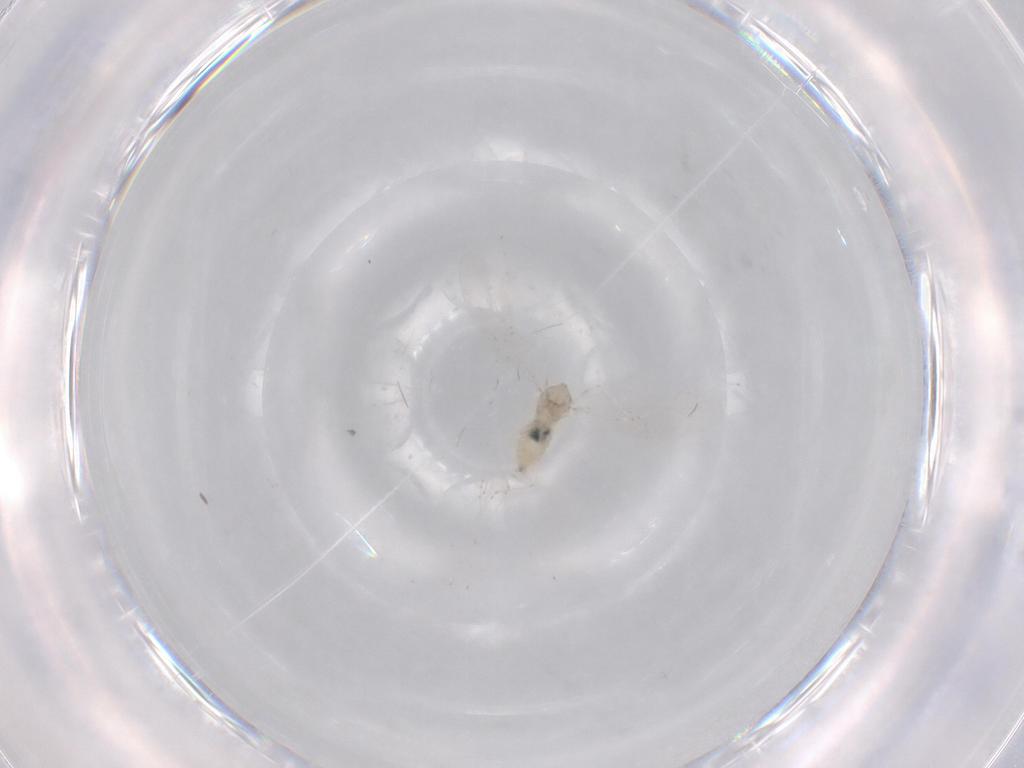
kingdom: Animalia
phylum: Arthropoda
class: Insecta
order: Diptera
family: Cecidomyiidae
